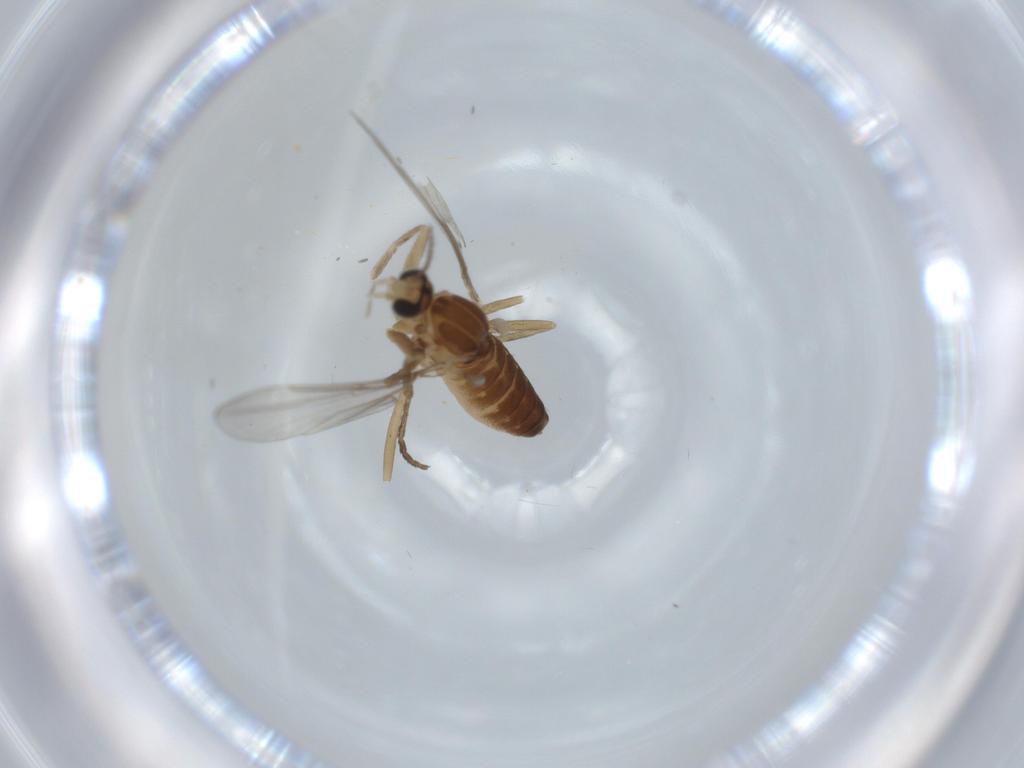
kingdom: Animalia
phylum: Arthropoda
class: Insecta
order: Diptera
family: Cecidomyiidae
